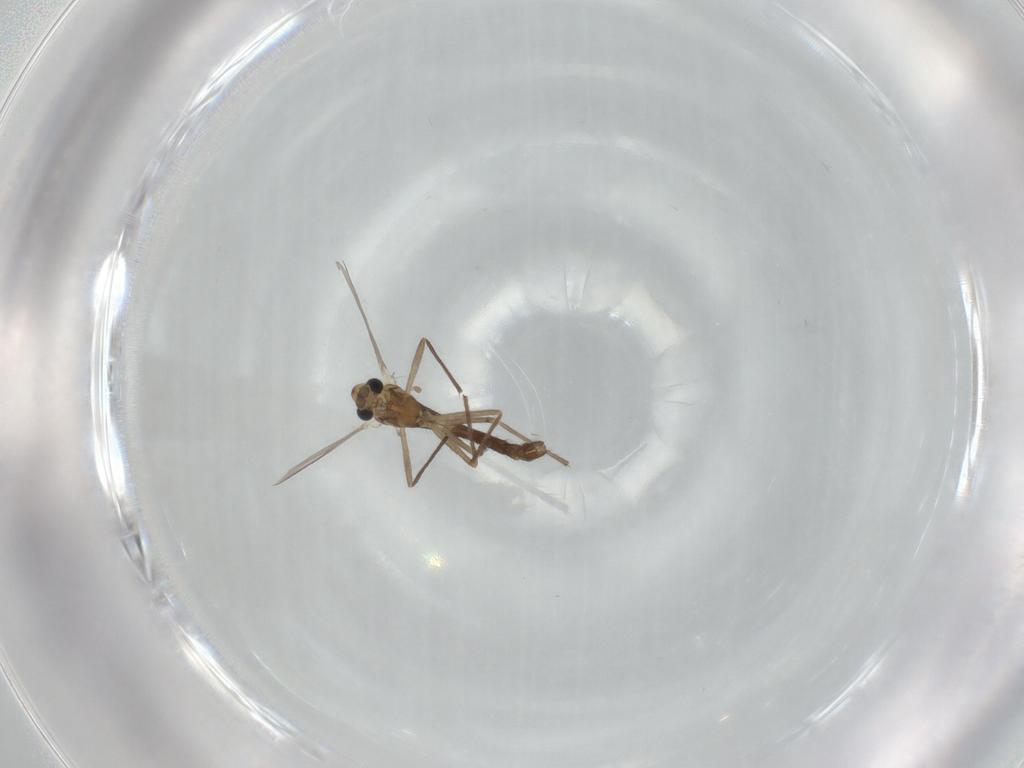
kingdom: Animalia
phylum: Arthropoda
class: Insecta
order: Diptera
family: Chironomidae
